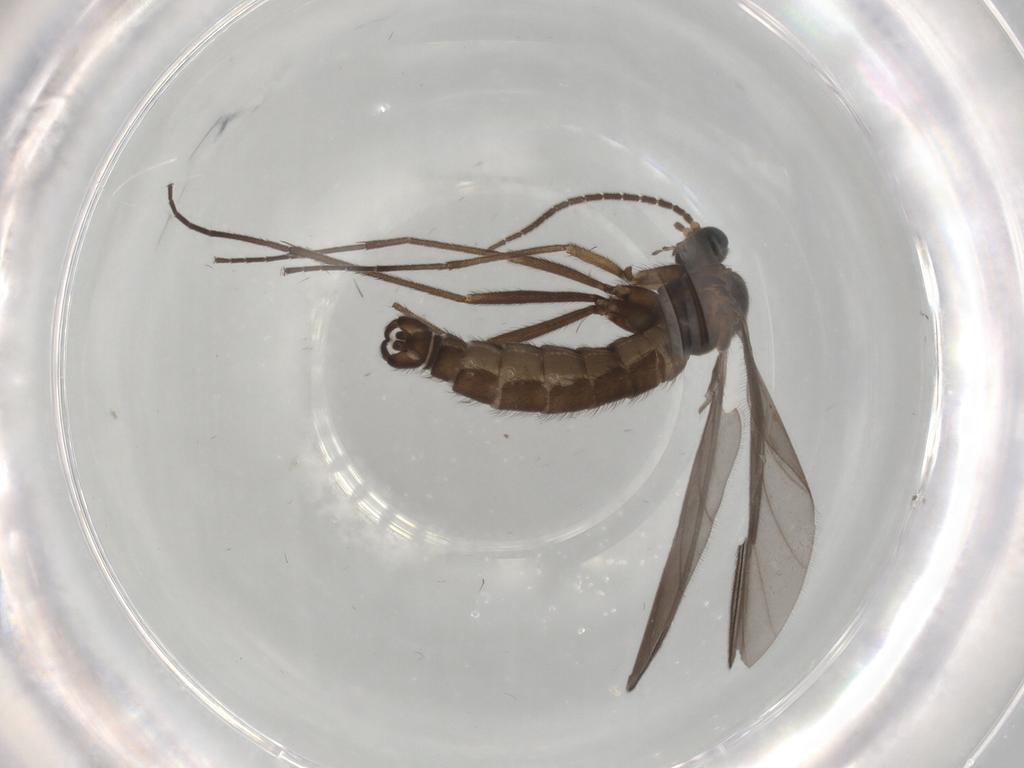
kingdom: Animalia
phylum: Arthropoda
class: Insecta
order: Diptera
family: Sciaridae
